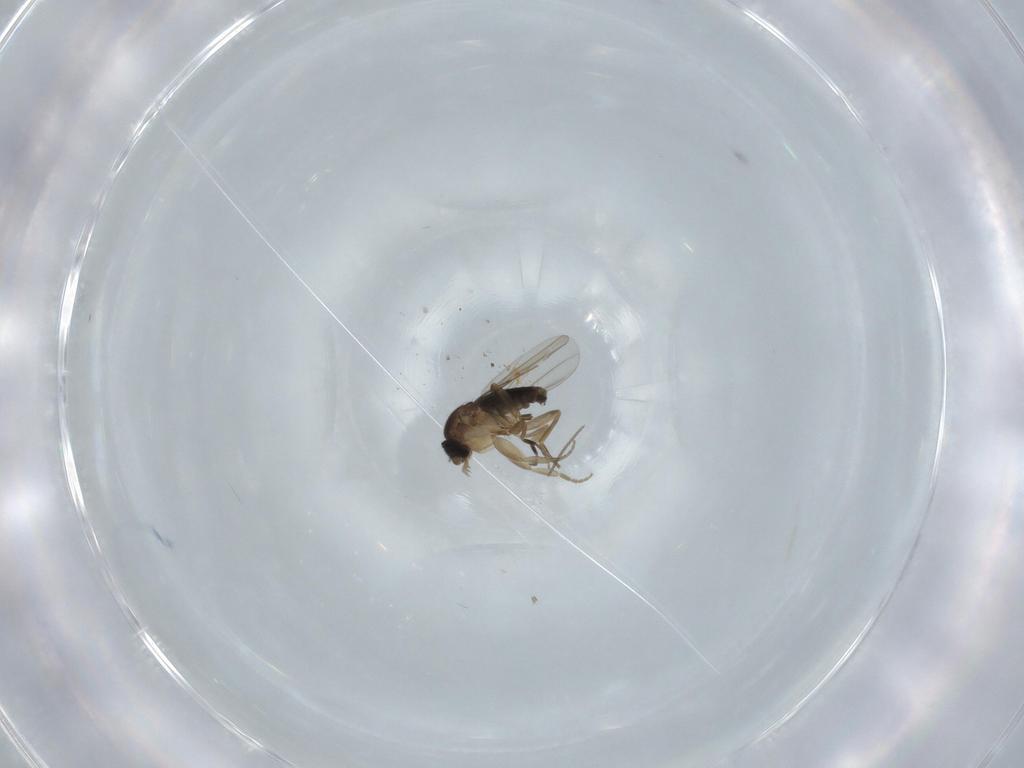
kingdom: Animalia
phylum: Arthropoda
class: Insecta
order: Diptera
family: Phoridae
